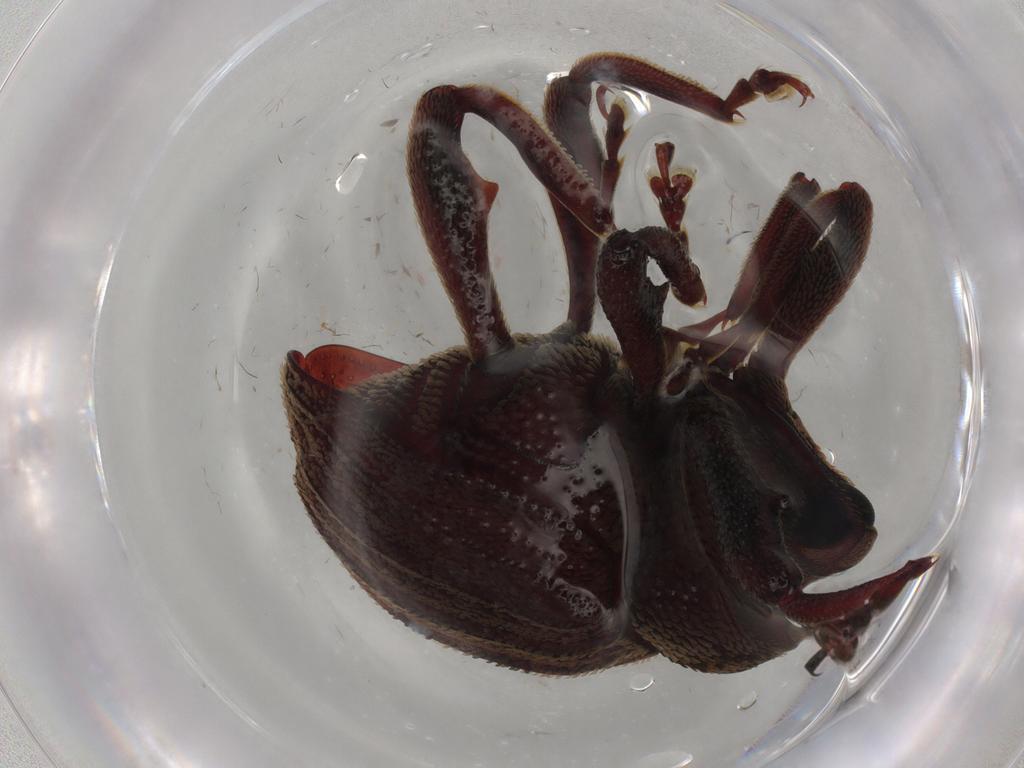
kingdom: Animalia
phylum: Arthropoda
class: Insecta
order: Coleoptera
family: Curculionidae
